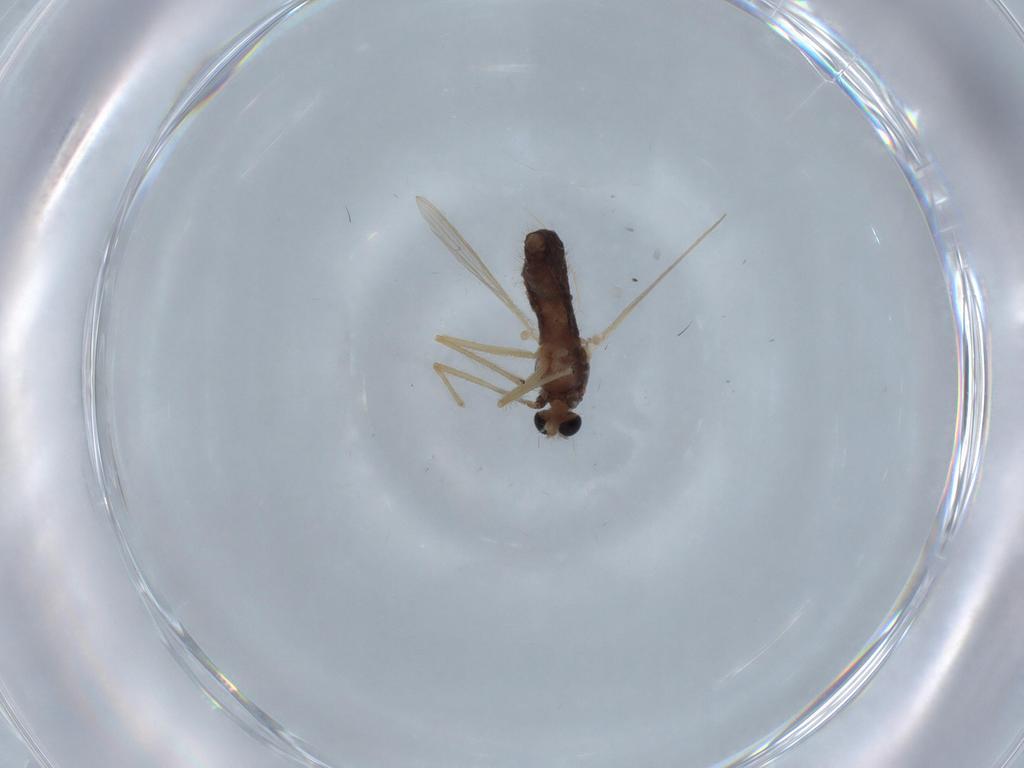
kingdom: Animalia
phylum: Arthropoda
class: Insecta
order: Diptera
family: Chironomidae
